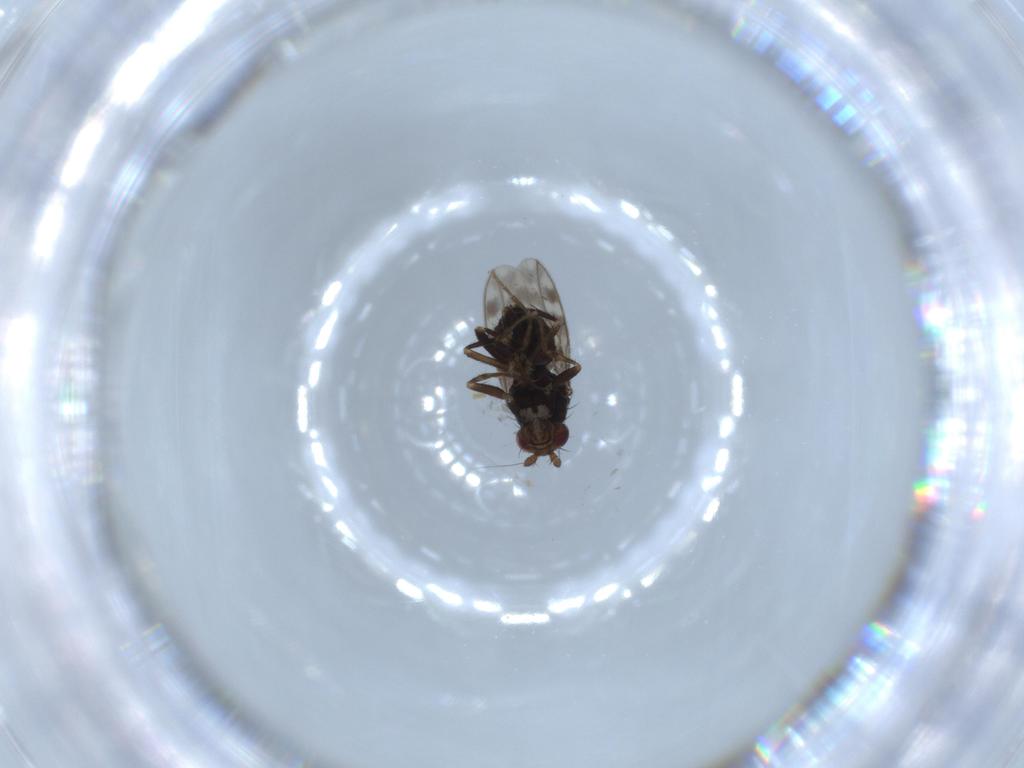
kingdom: Animalia
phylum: Arthropoda
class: Insecta
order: Diptera
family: Sphaeroceridae
